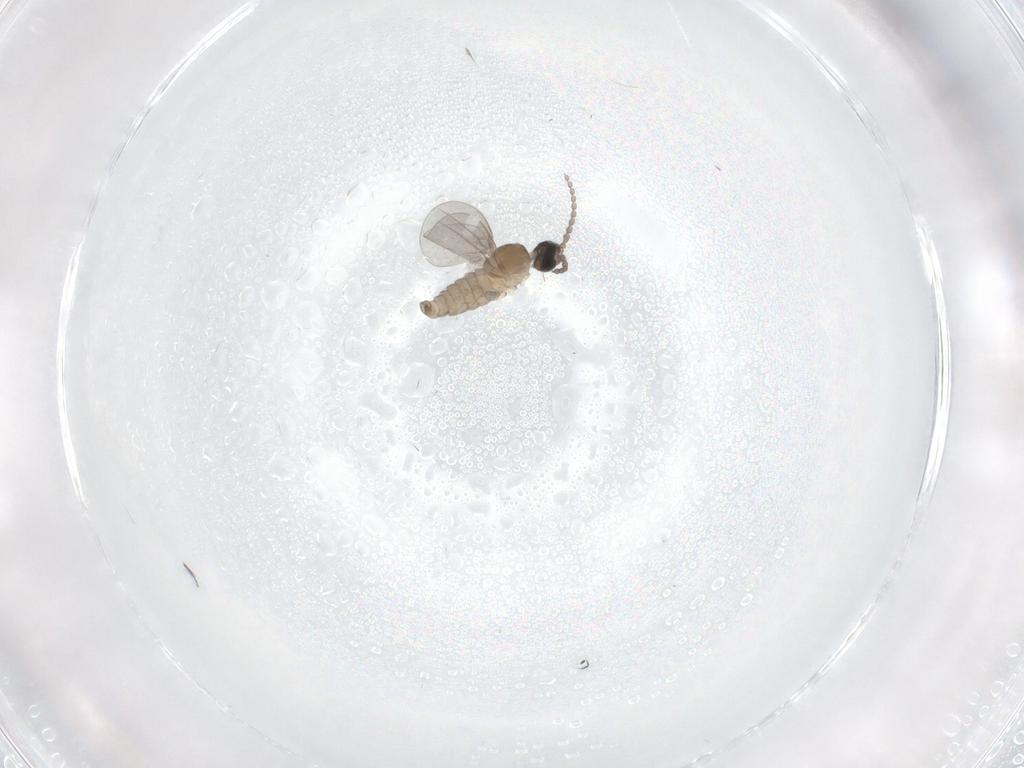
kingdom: Animalia
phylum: Arthropoda
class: Insecta
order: Diptera
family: Cecidomyiidae
